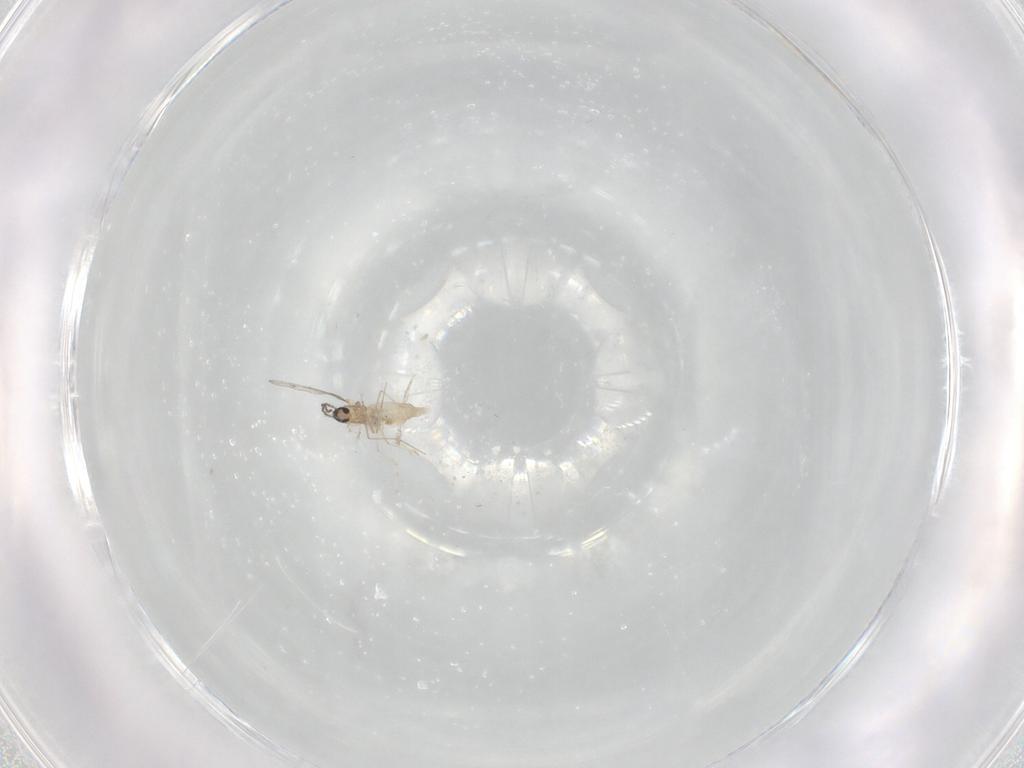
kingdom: Animalia
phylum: Arthropoda
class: Insecta
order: Diptera
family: Cecidomyiidae
